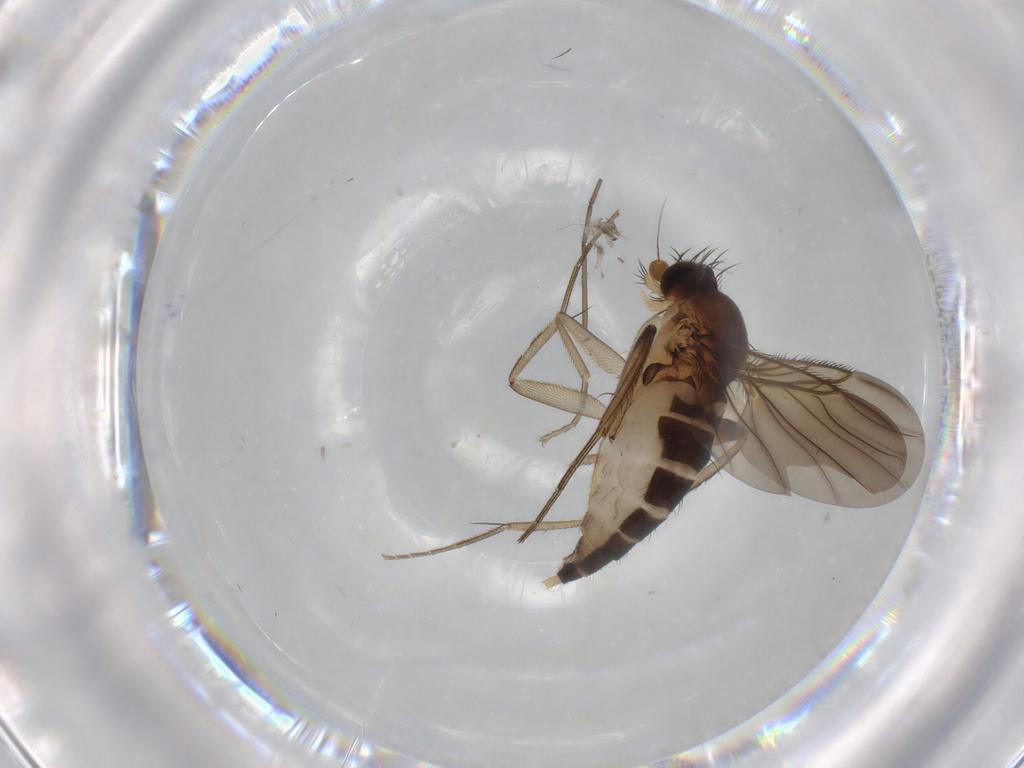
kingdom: Animalia
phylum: Arthropoda
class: Insecta
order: Diptera
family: Phoridae
